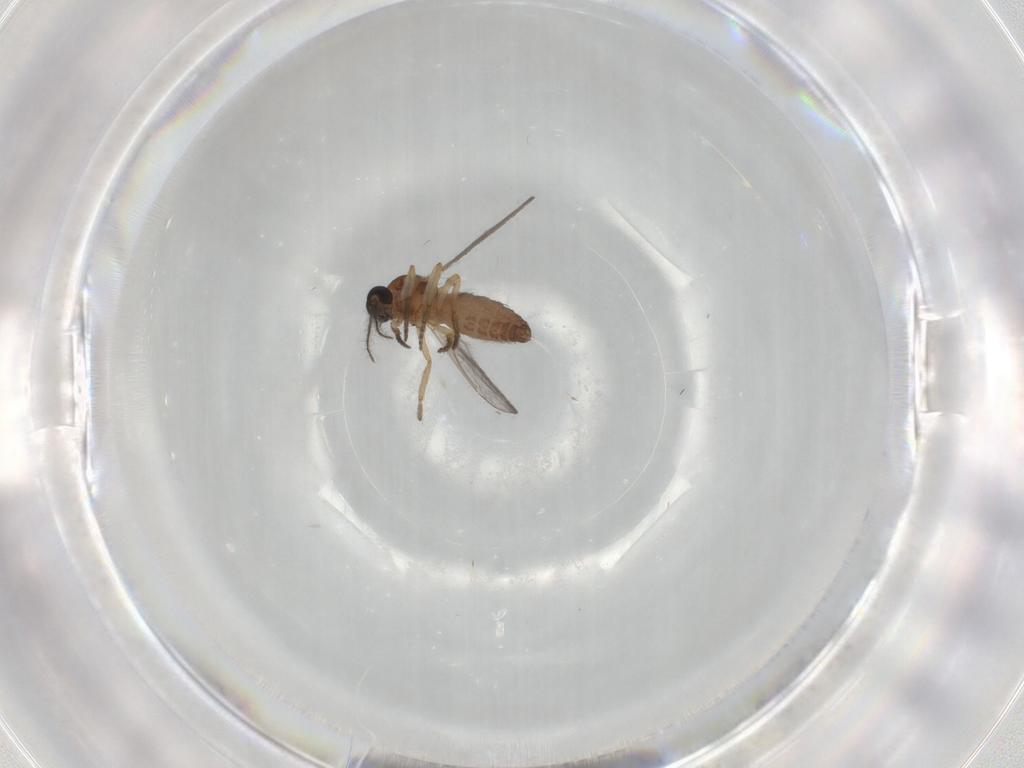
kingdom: Animalia
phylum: Arthropoda
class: Insecta
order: Diptera
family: Ceratopogonidae
